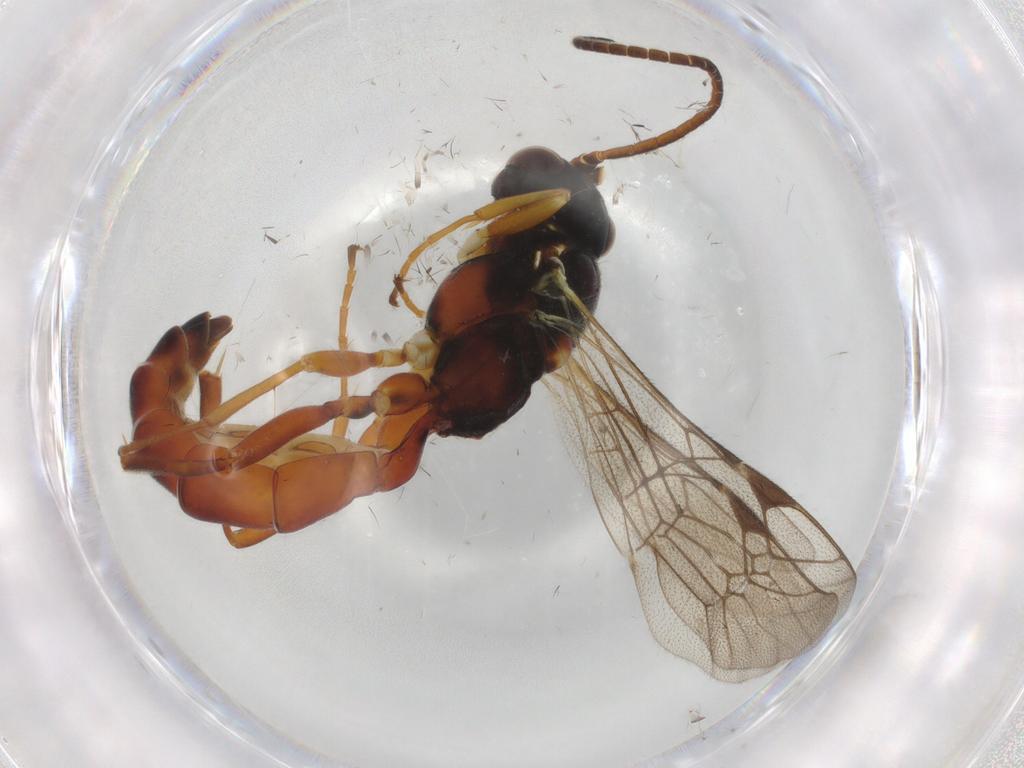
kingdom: Animalia
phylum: Arthropoda
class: Insecta
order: Hymenoptera
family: Ichneumonidae
